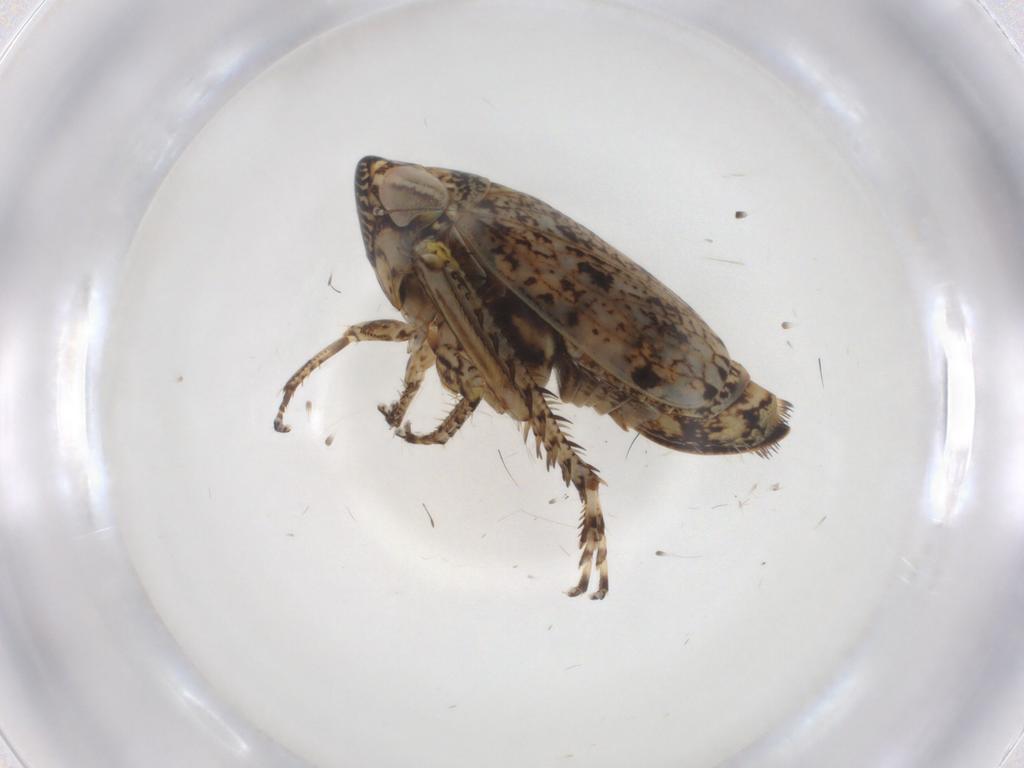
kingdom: Animalia
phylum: Arthropoda
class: Insecta
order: Hemiptera
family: Cicadellidae
